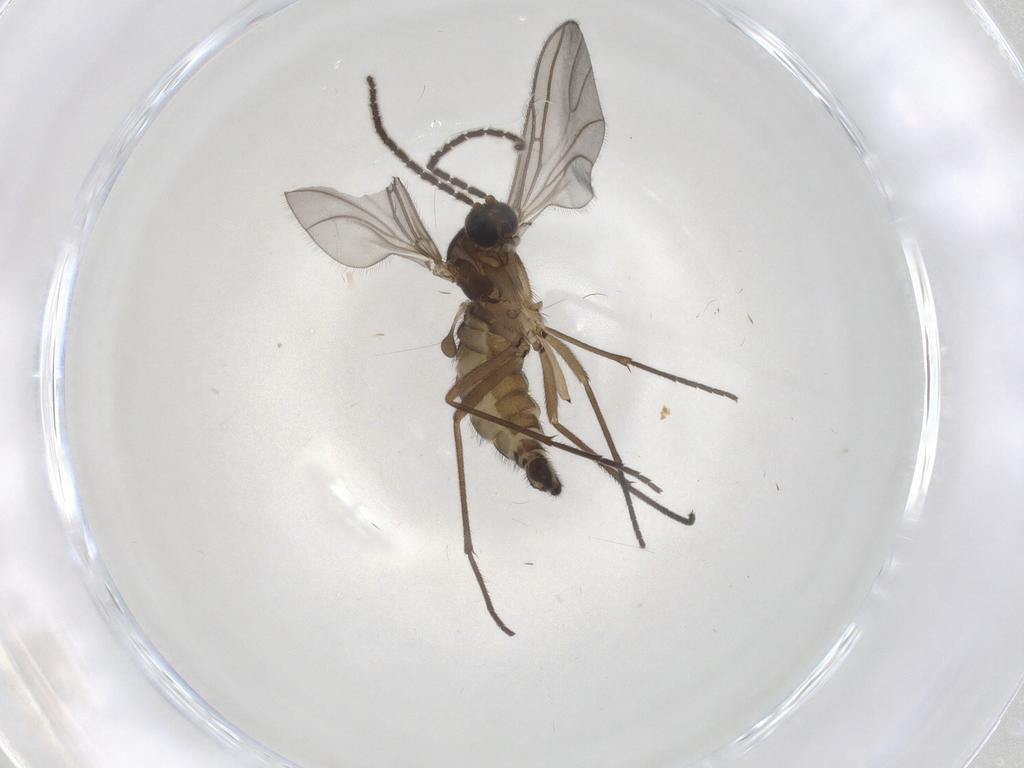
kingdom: Animalia
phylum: Arthropoda
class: Insecta
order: Diptera
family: Sciaridae
